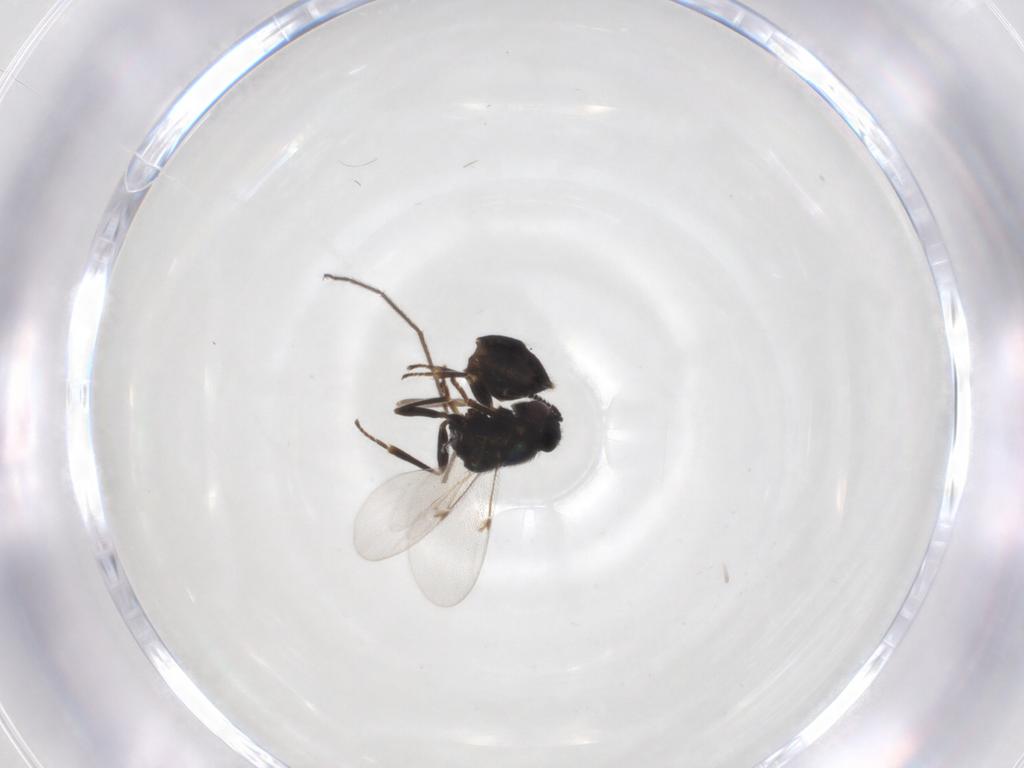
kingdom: Animalia
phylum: Arthropoda
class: Insecta
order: Hymenoptera
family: Encyrtidae
